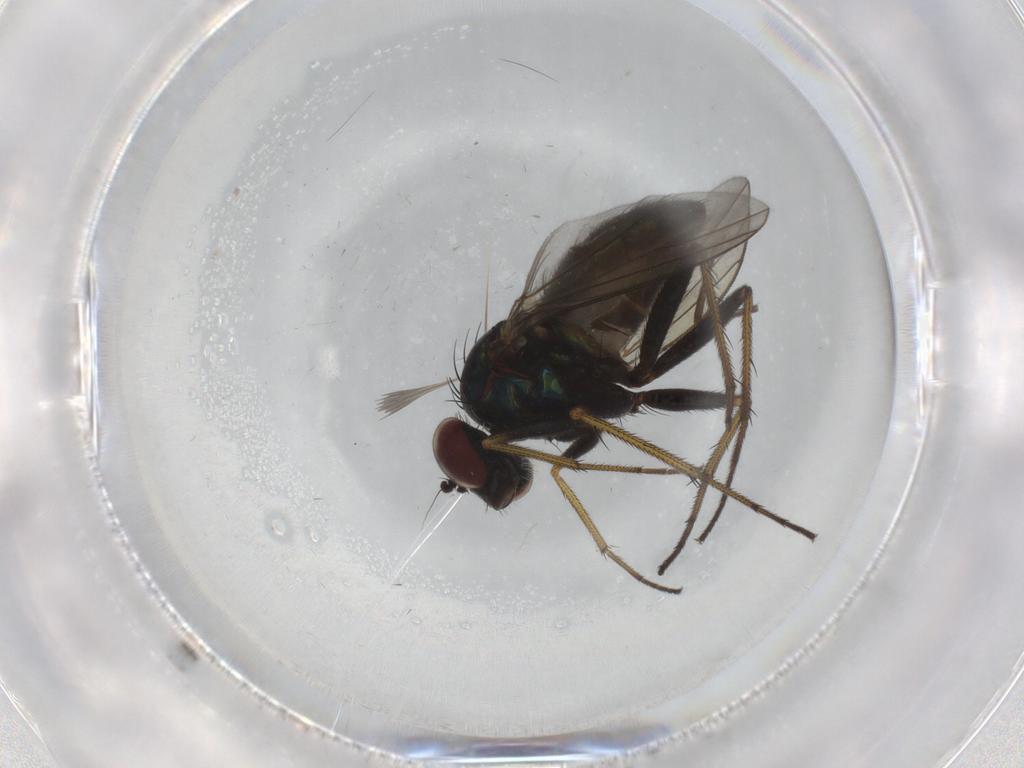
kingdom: Animalia
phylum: Arthropoda
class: Insecta
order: Diptera
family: Dolichopodidae
